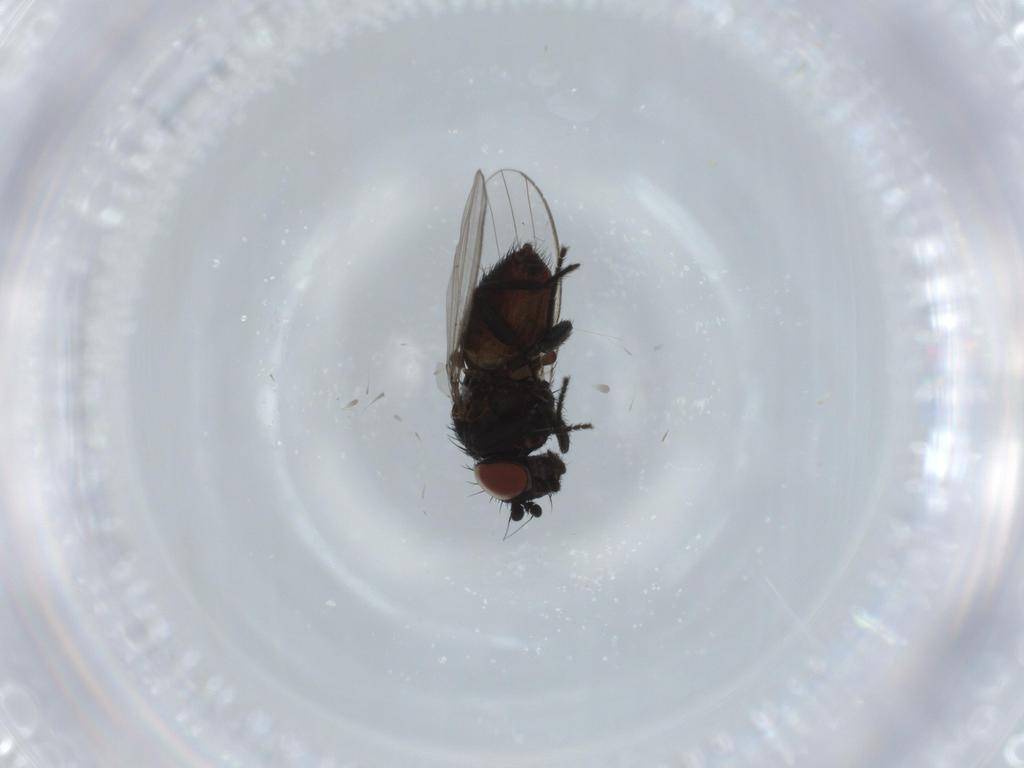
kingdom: Animalia
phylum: Arthropoda
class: Insecta
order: Diptera
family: Milichiidae
